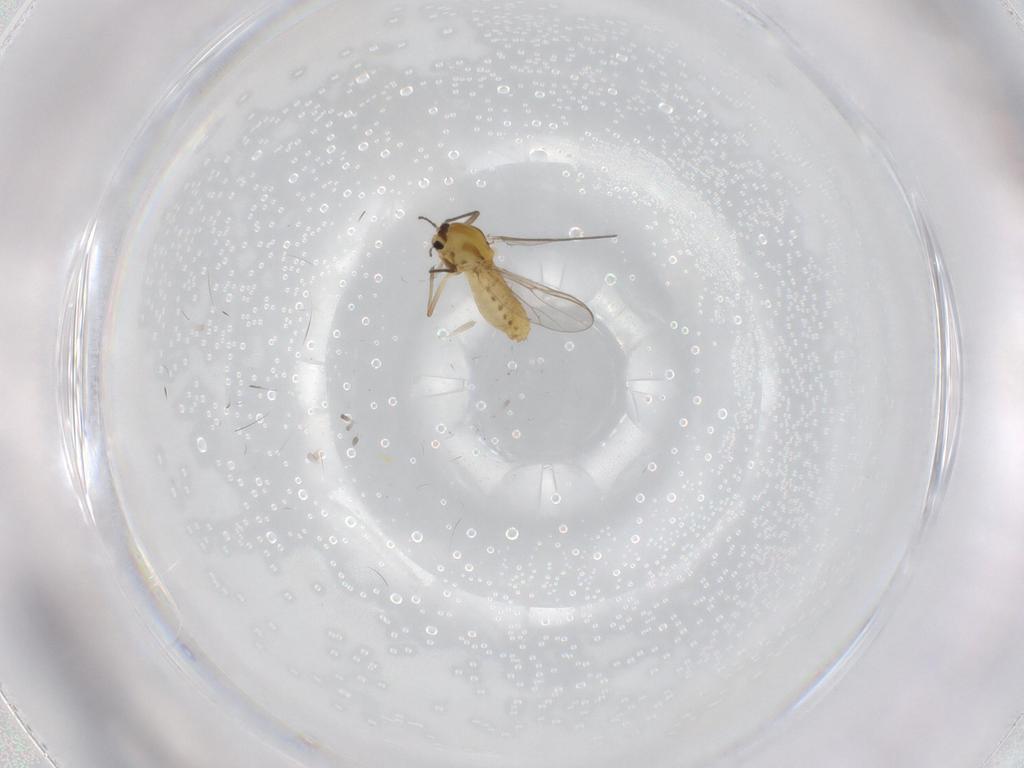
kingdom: Animalia
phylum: Arthropoda
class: Insecta
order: Diptera
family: Chironomidae
